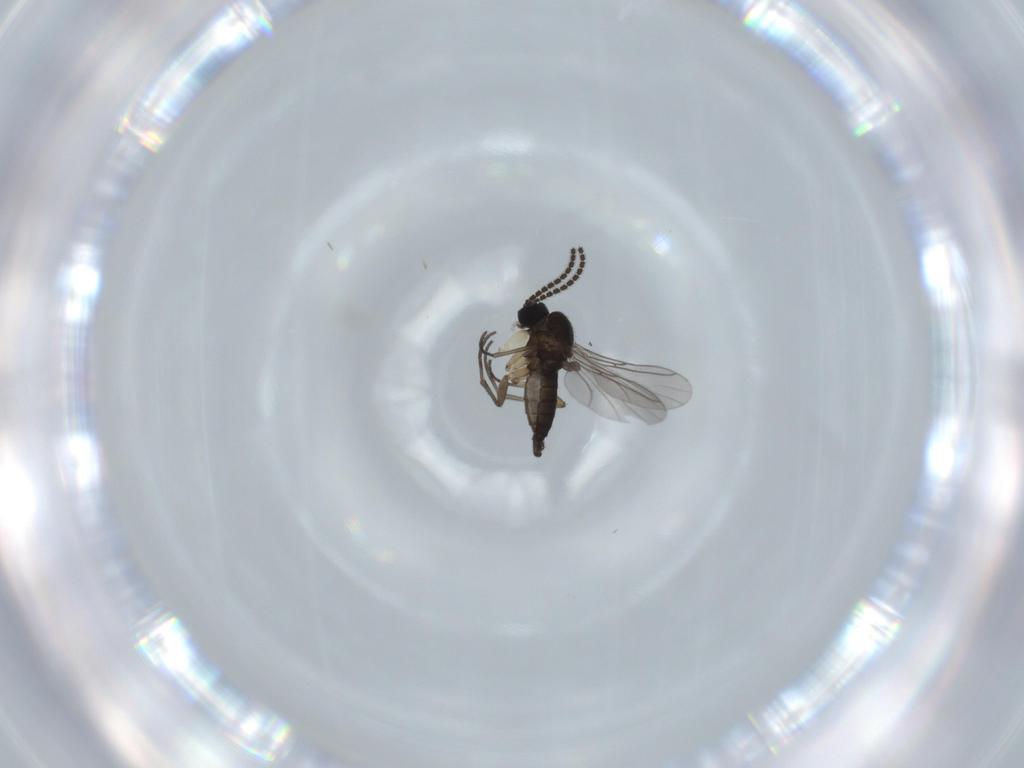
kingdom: Animalia
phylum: Arthropoda
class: Insecta
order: Diptera
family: Sciaridae
